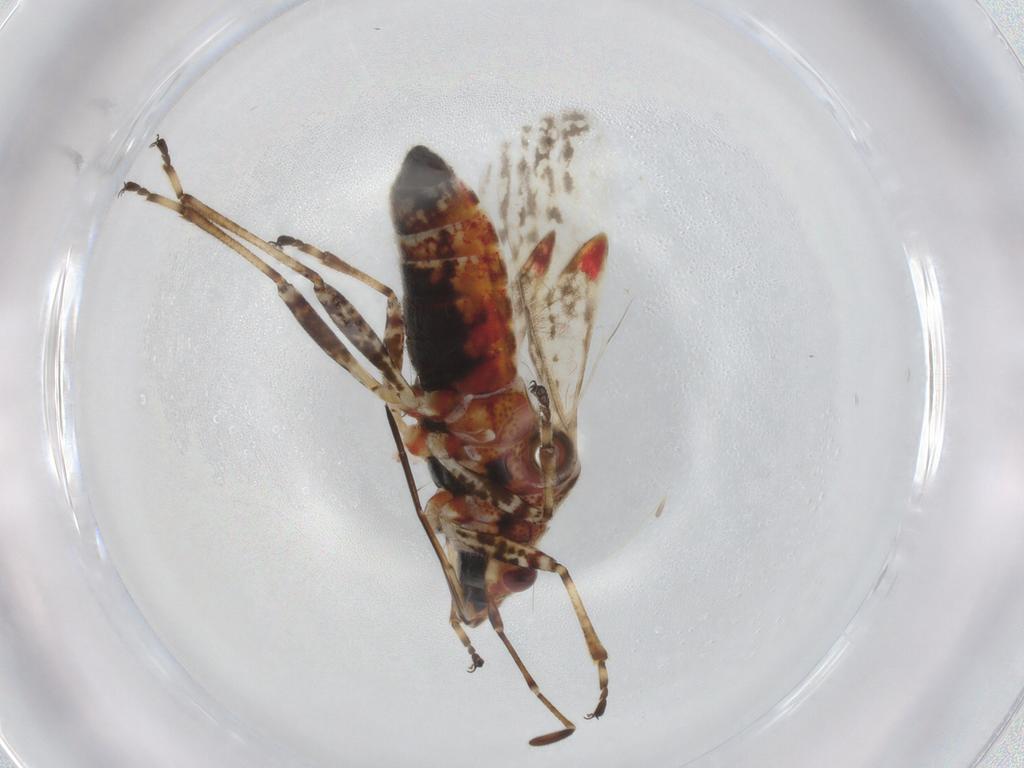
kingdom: Animalia
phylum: Arthropoda
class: Insecta
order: Hemiptera
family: Lygaeidae
